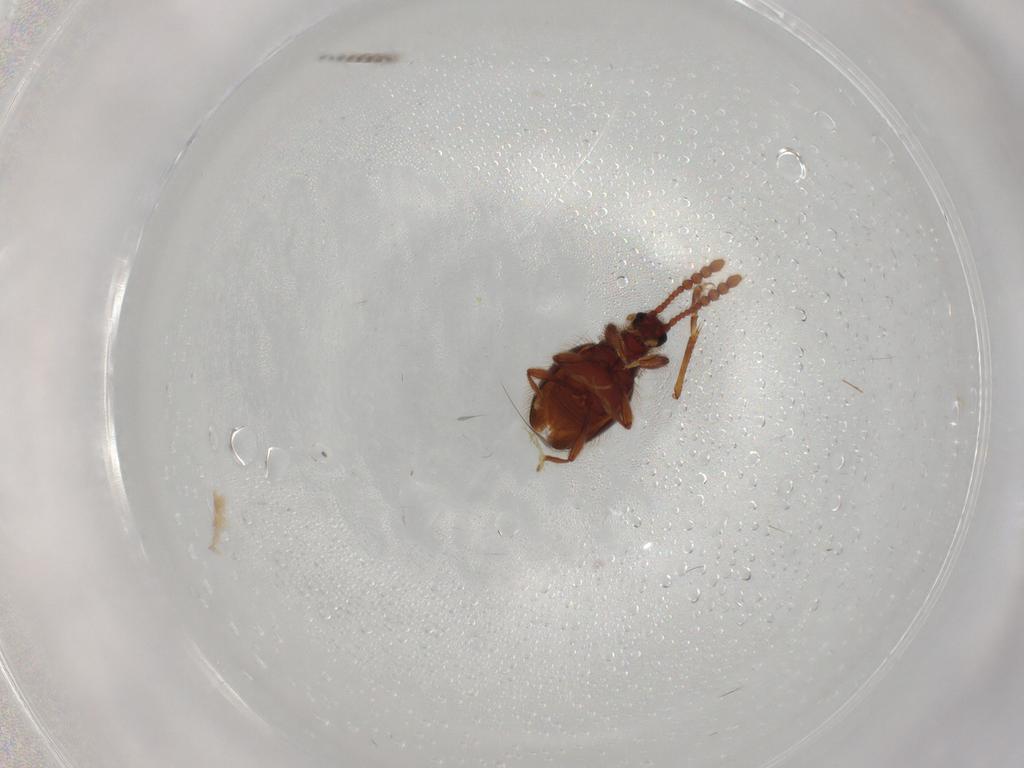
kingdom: Animalia
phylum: Arthropoda
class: Insecta
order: Coleoptera
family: Staphylinidae
